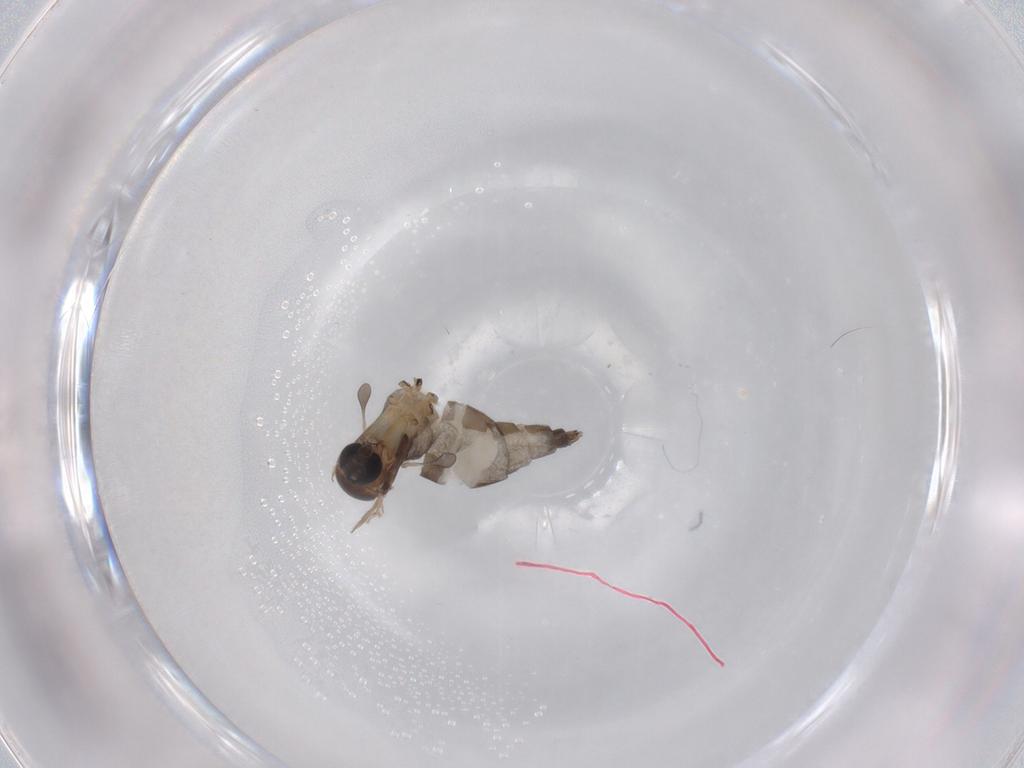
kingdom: Animalia
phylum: Arthropoda
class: Insecta
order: Diptera
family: Sciaridae
